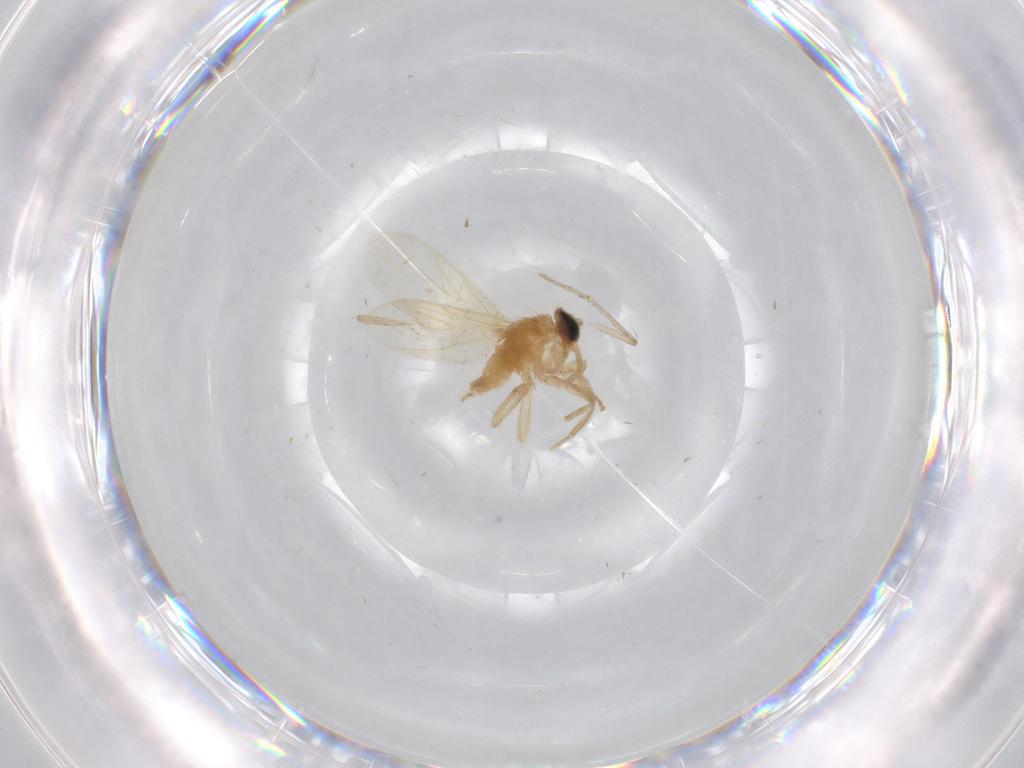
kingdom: Animalia
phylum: Arthropoda
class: Insecta
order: Diptera
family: Hybotidae
